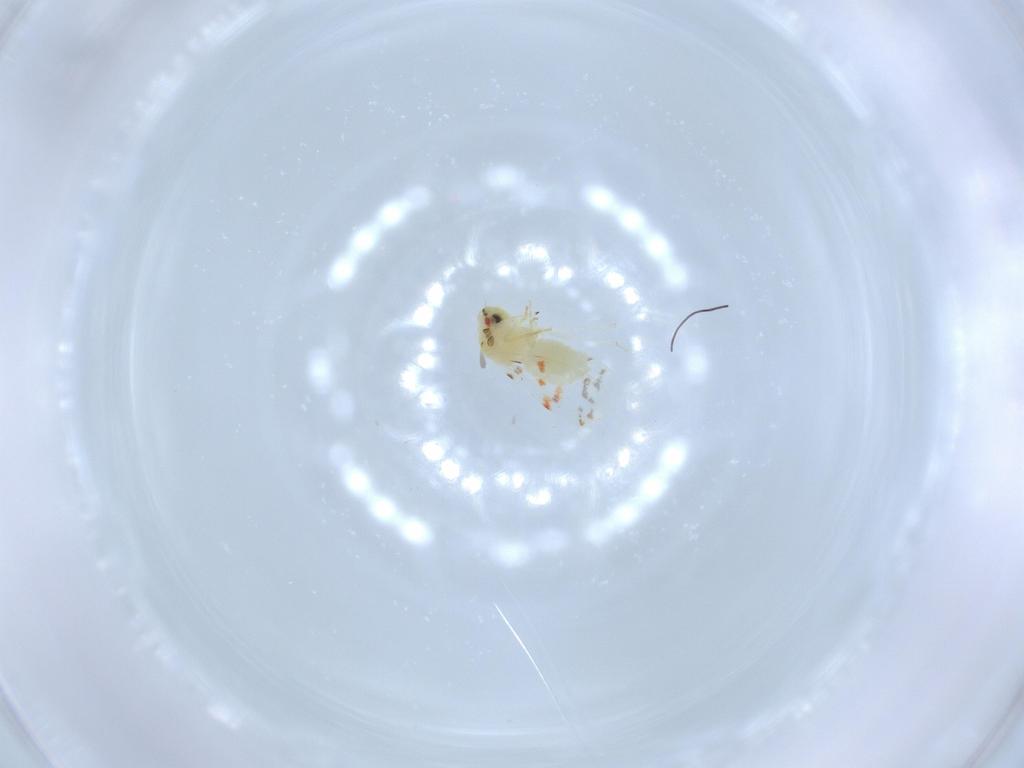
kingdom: Animalia
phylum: Arthropoda
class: Insecta
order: Hemiptera
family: Aleyrodidae
